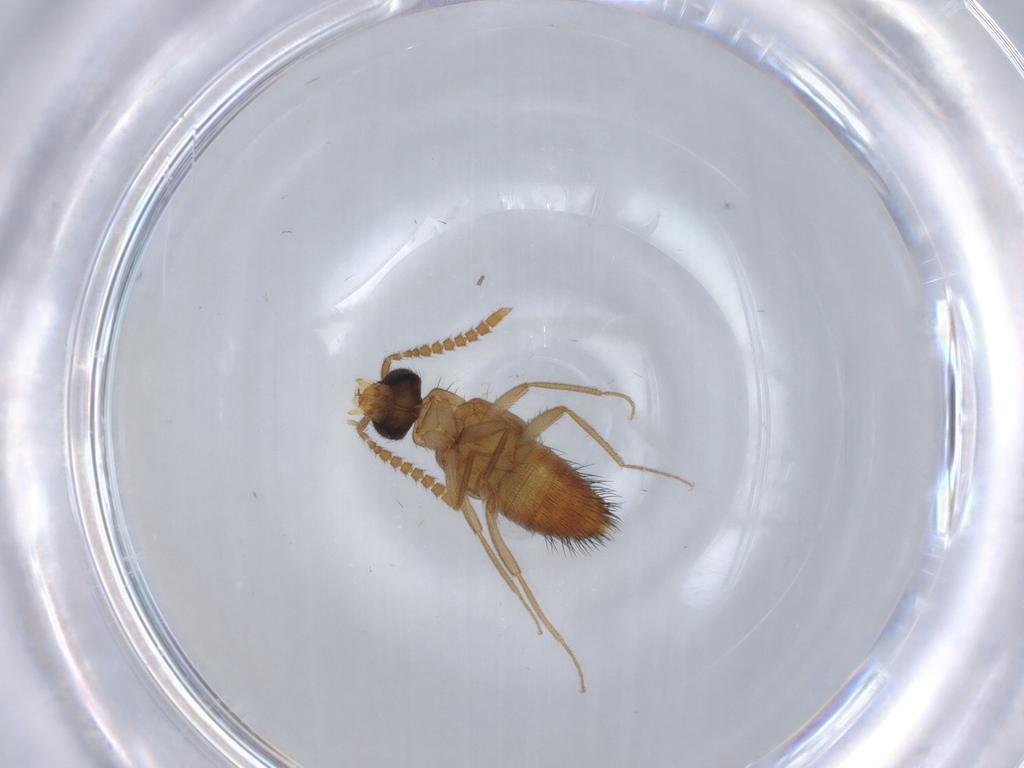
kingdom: Animalia
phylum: Arthropoda
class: Insecta
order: Coleoptera
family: Staphylinidae
